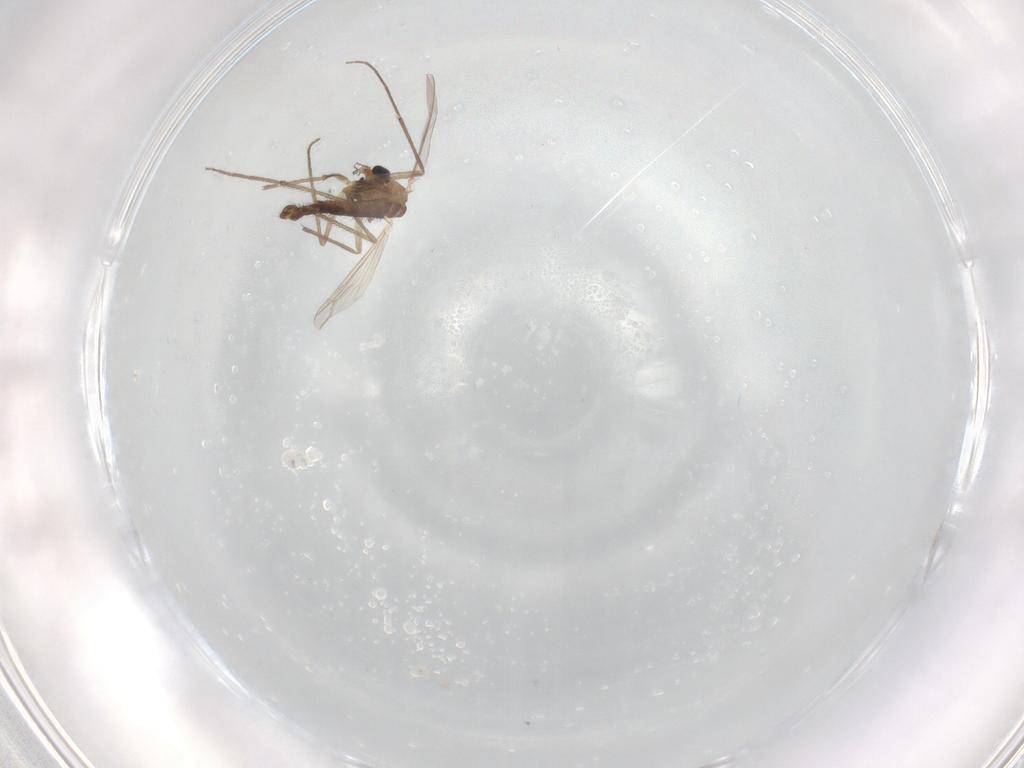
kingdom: Animalia
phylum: Arthropoda
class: Insecta
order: Diptera
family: Chironomidae
